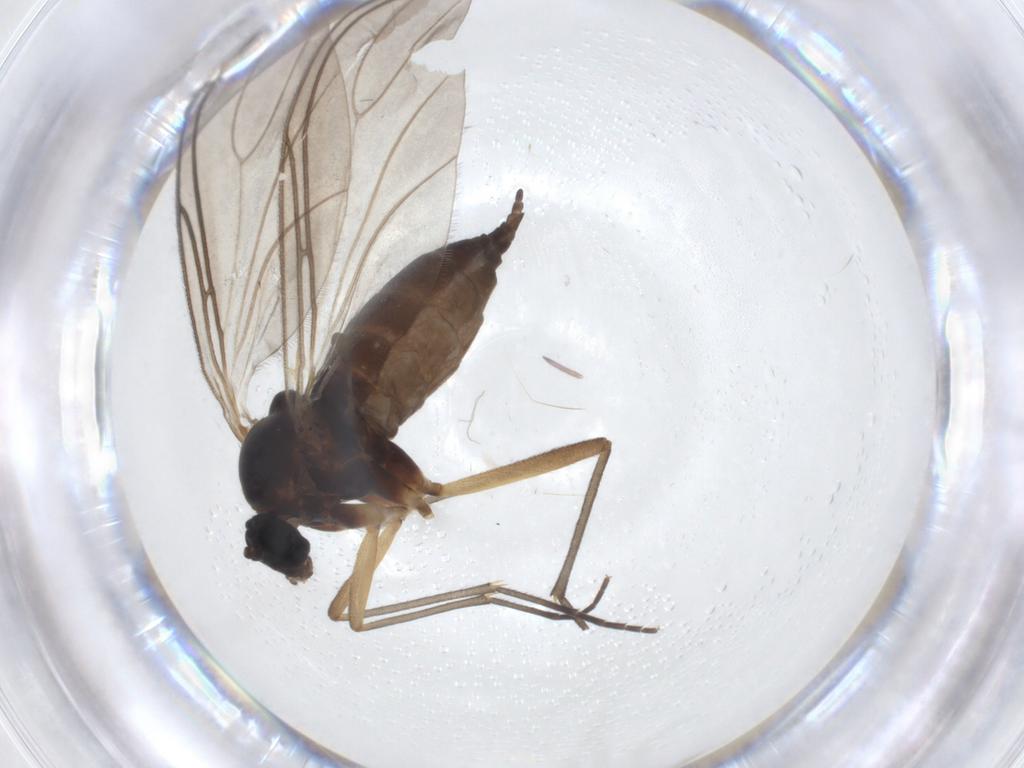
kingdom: Animalia
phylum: Arthropoda
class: Insecta
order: Diptera
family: Sciaridae
